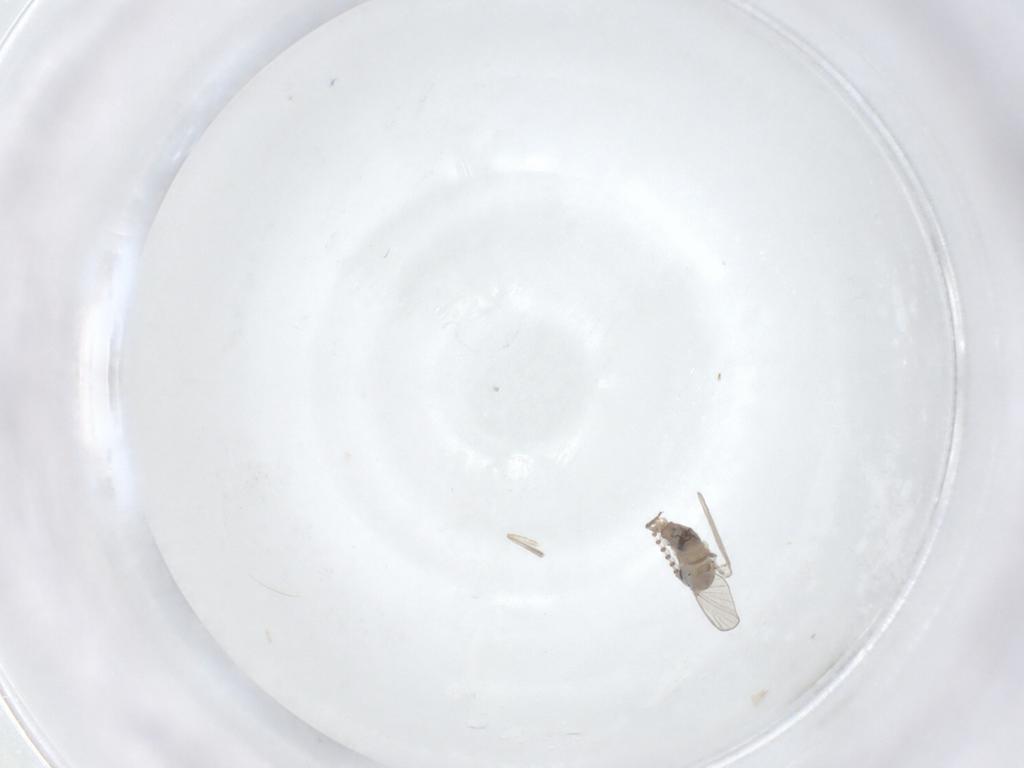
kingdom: Animalia
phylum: Arthropoda
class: Insecta
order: Diptera
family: Psychodidae
